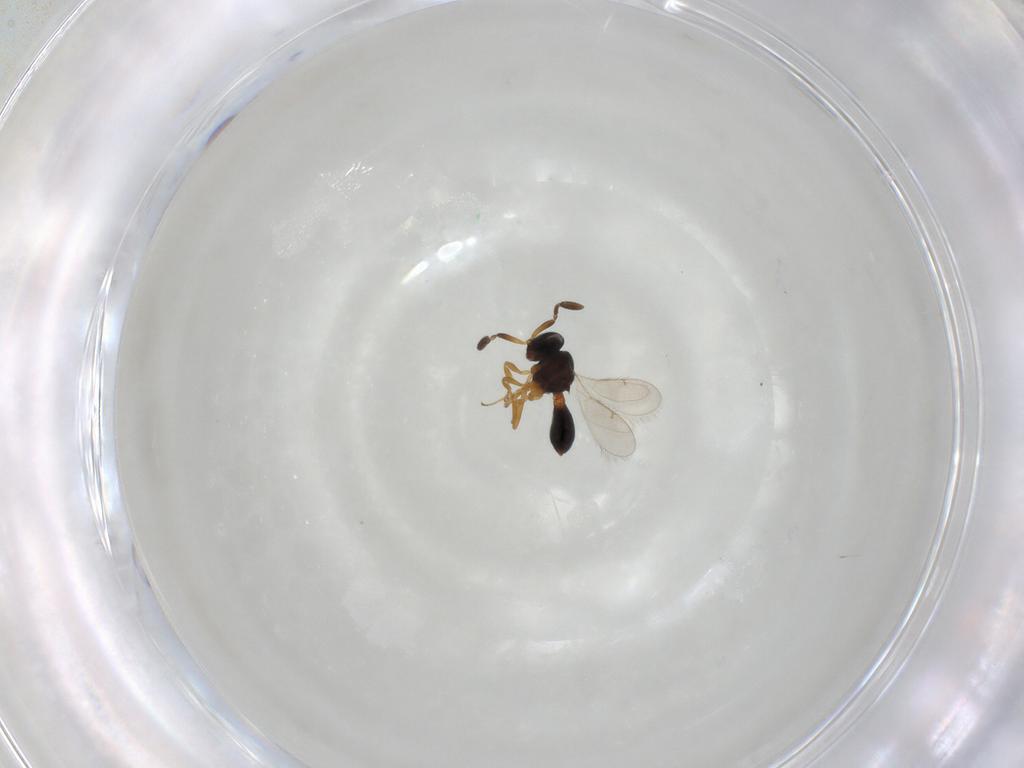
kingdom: Animalia
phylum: Arthropoda
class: Insecta
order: Hymenoptera
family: Scelionidae
